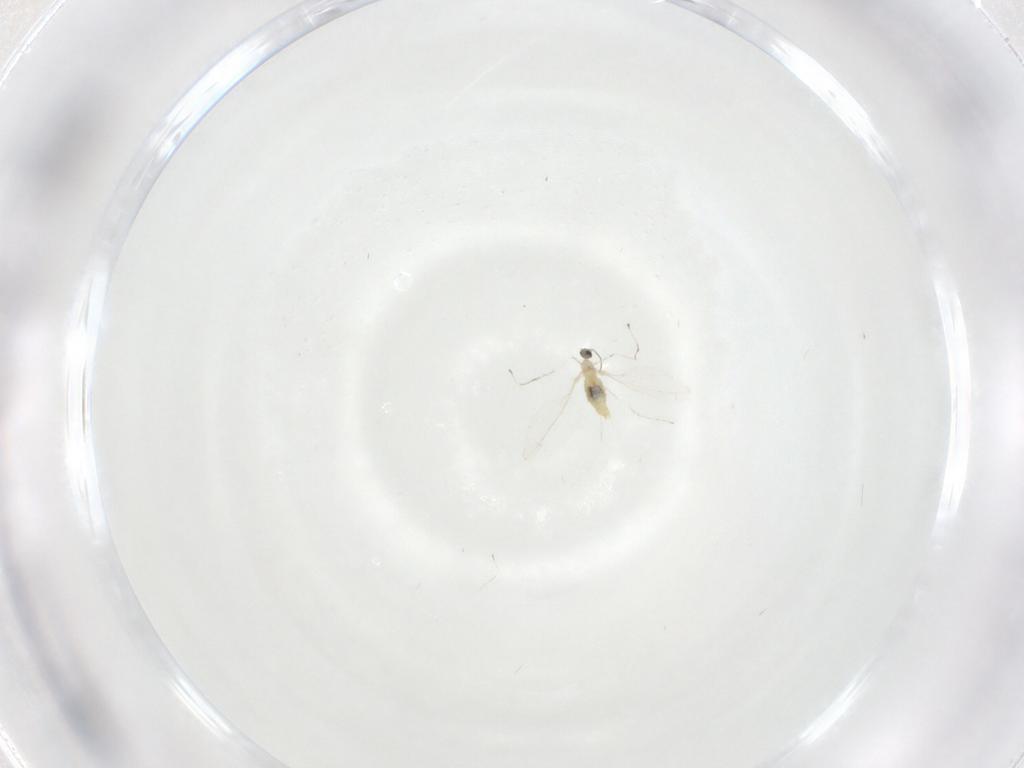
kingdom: Animalia
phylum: Arthropoda
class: Insecta
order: Diptera
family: Cecidomyiidae
